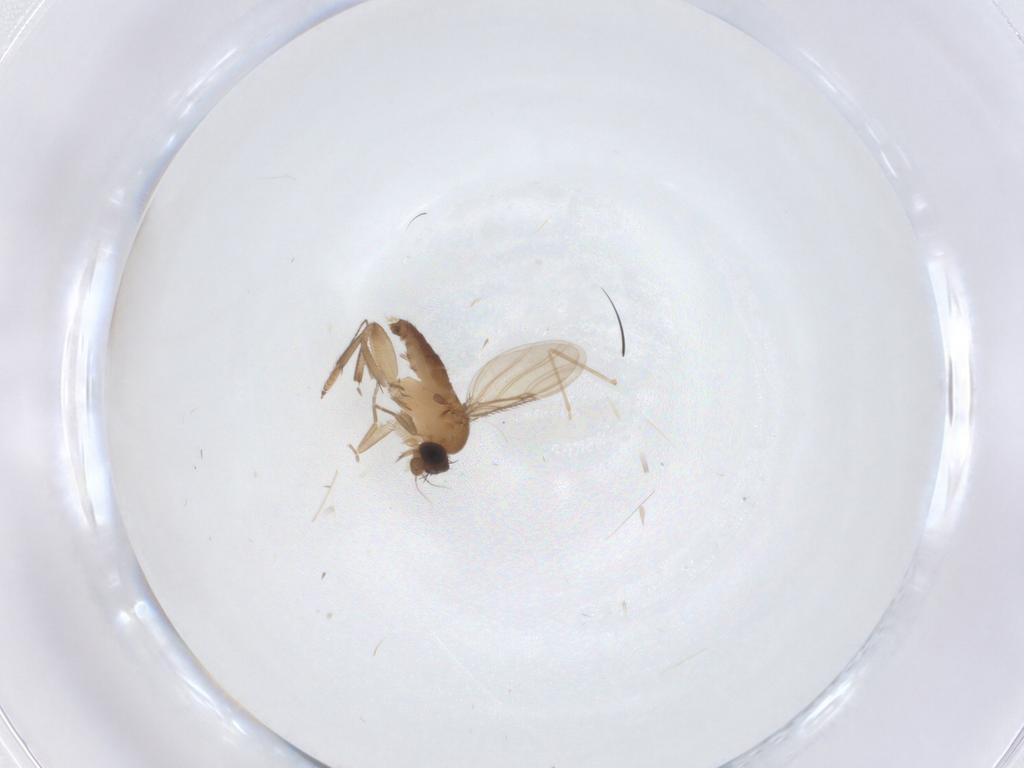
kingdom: Animalia
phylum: Arthropoda
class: Insecta
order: Diptera
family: Phoridae
